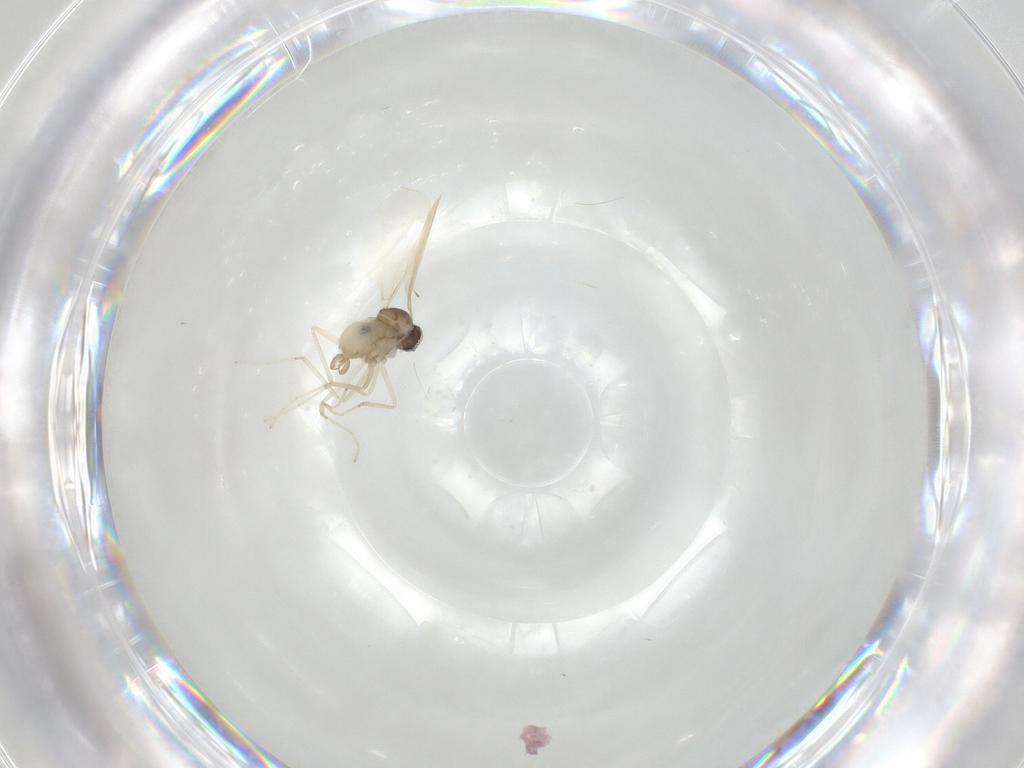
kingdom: Animalia
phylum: Arthropoda
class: Insecta
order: Diptera
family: Cecidomyiidae
